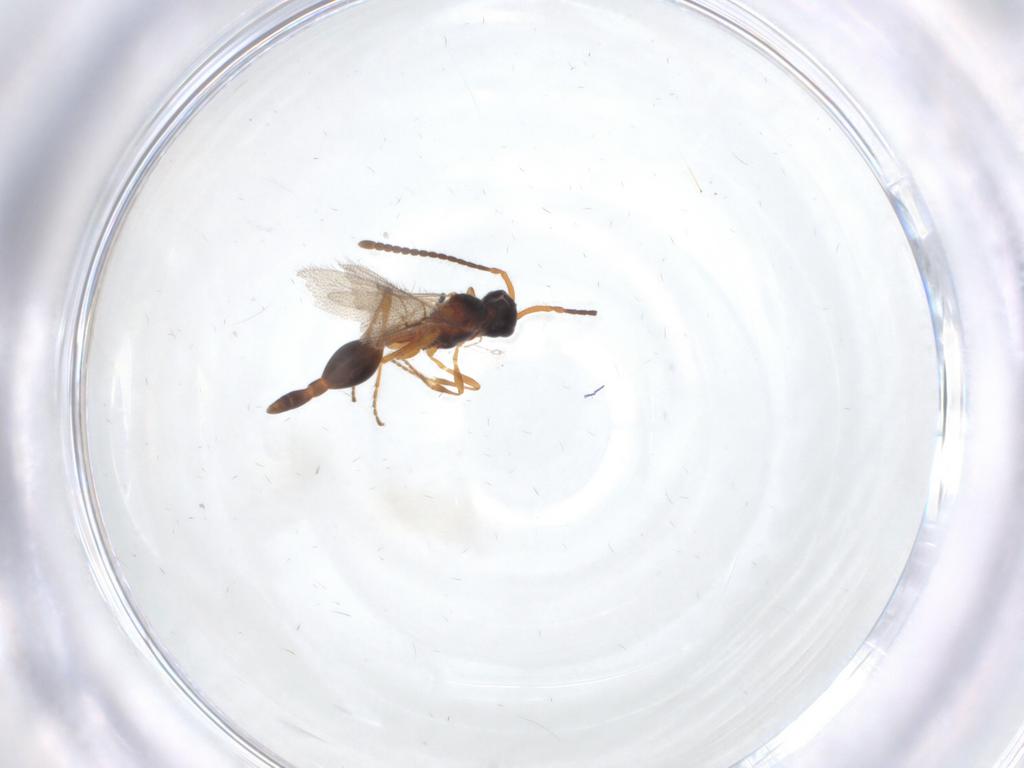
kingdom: Animalia
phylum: Arthropoda
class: Insecta
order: Hymenoptera
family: Diapriidae
